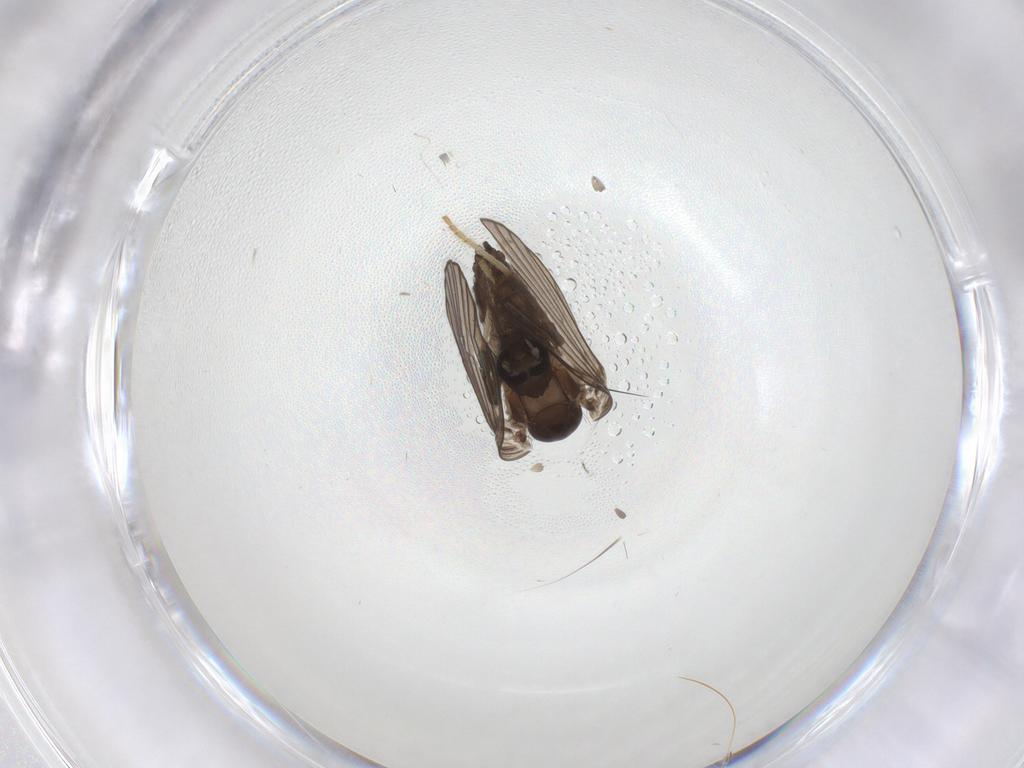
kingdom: Animalia
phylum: Arthropoda
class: Insecta
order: Diptera
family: Psychodidae
